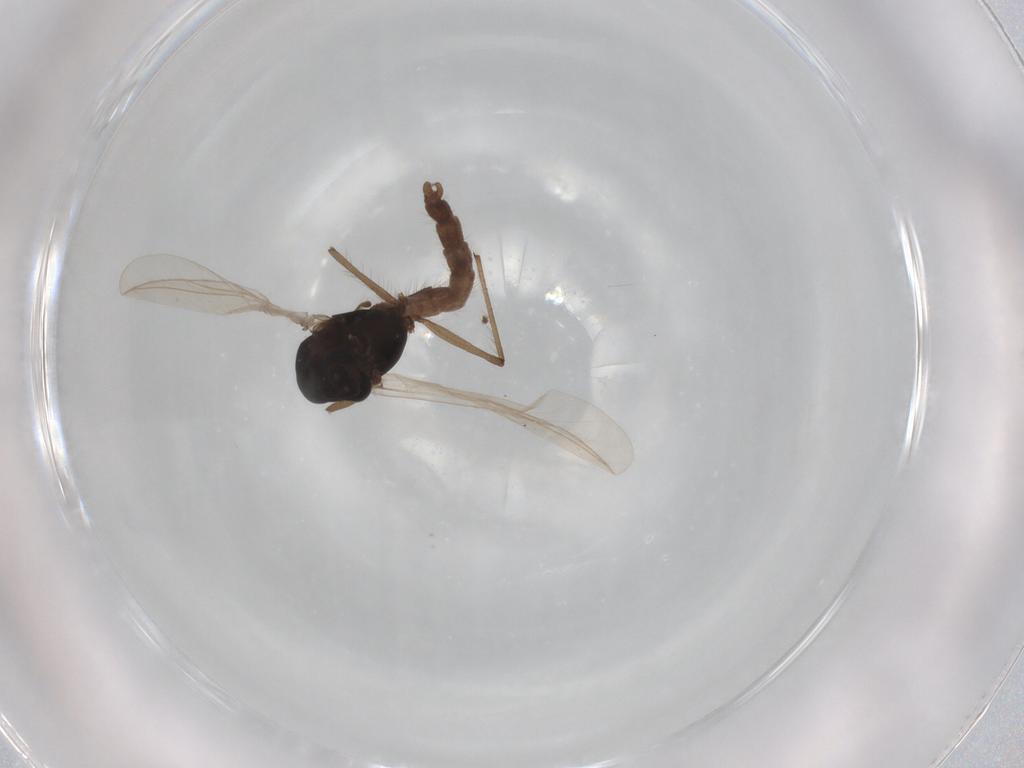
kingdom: Animalia
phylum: Arthropoda
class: Insecta
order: Diptera
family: Chironomidae
